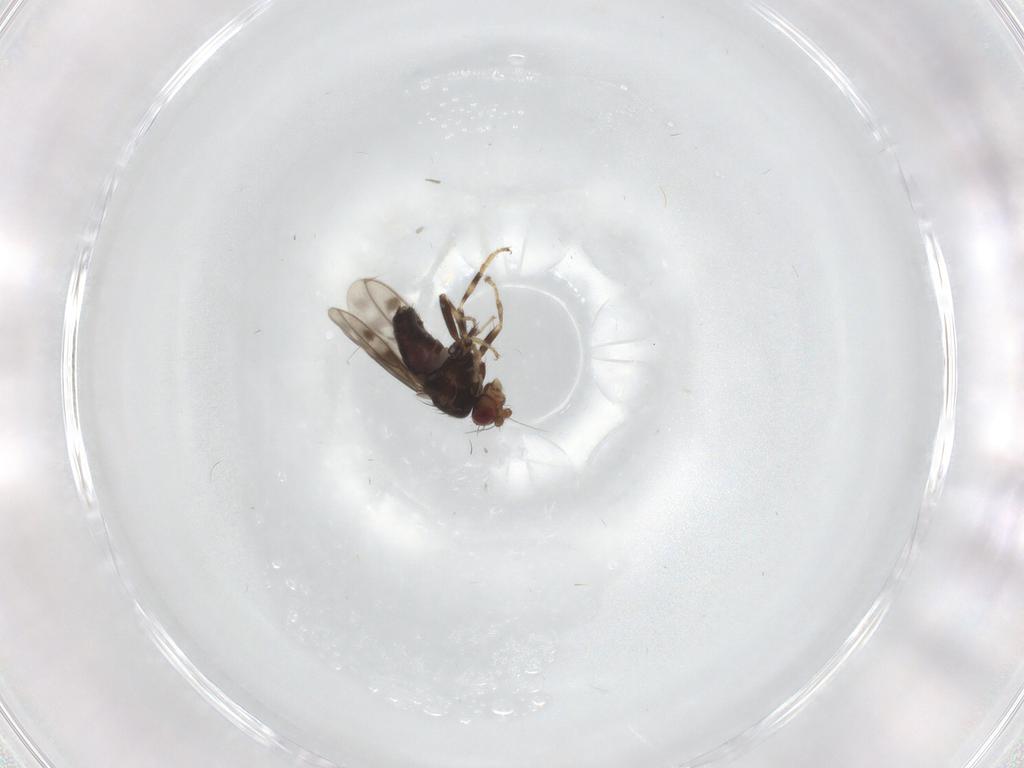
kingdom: Animalia
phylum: Arthropoda
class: Insecta
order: Diptera
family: Sphaeroceridae
